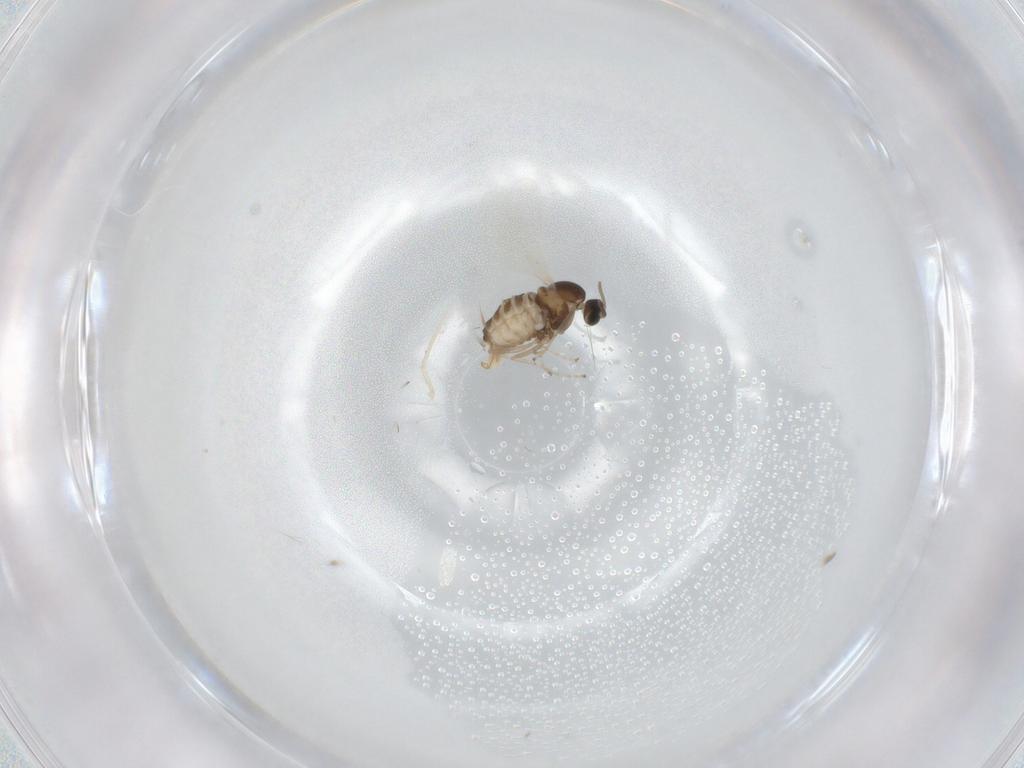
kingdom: Animalia
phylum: Arthropoda
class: Insecta
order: Diptera
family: Cecidomyiidae
